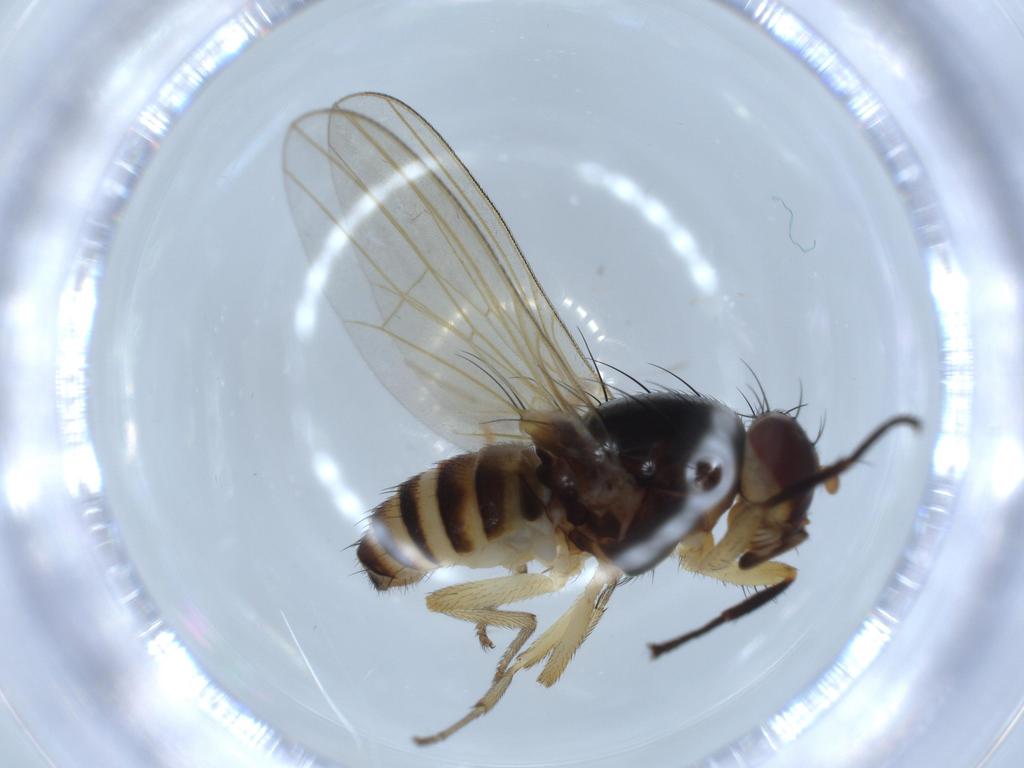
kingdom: Animalia
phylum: Arthropoda
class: Insecta
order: Diptera
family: Lauxaniidae
